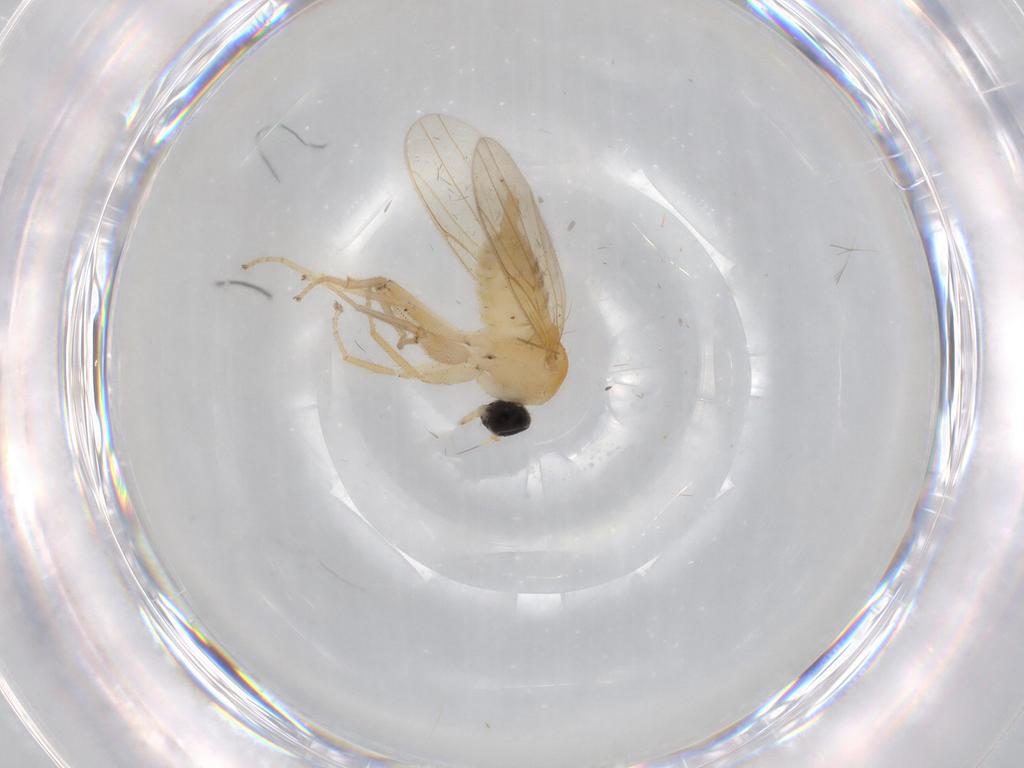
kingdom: Animalia
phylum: Arthropoda
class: Insecta
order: Diptera
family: Hybotidae
